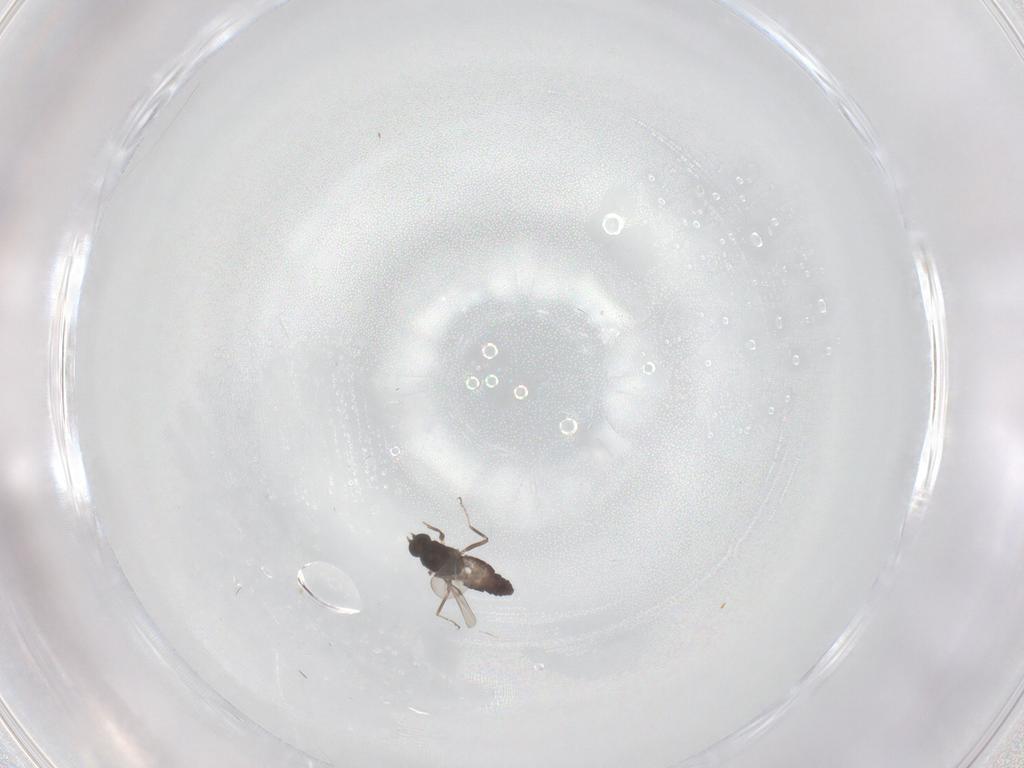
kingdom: Animalia
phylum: Arthropoda
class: Insecta
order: Diptera
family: Ceratopogonidae
